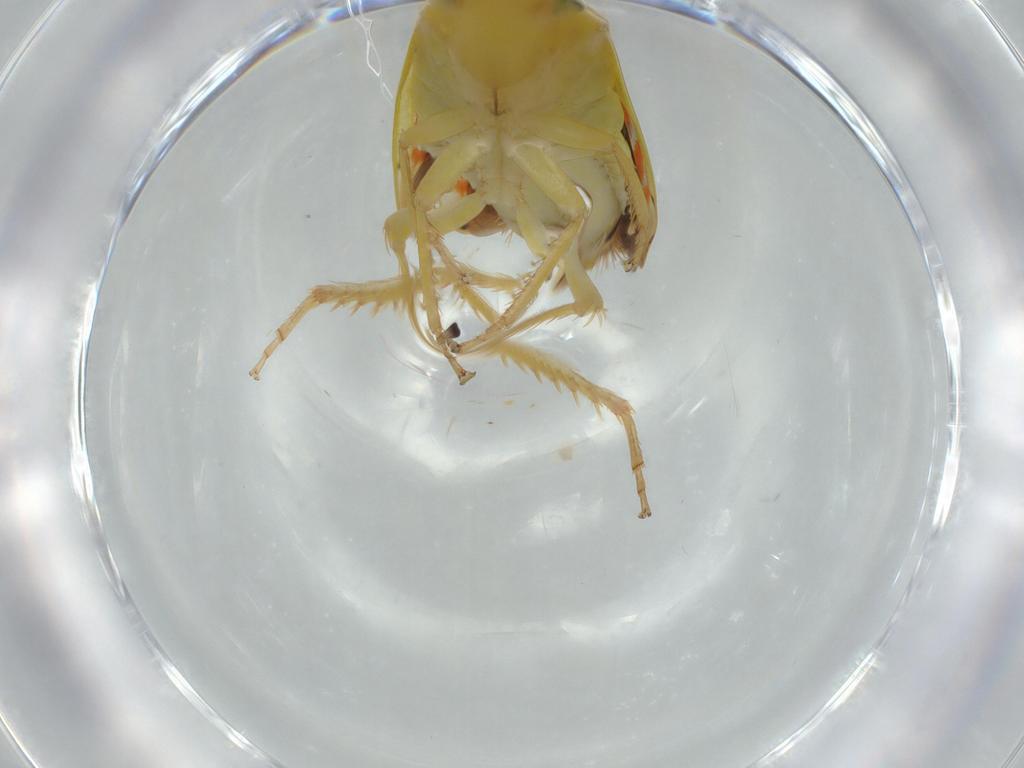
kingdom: Animalia
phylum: Arthropoda
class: Insecta
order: Hemiptera
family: Cicadellidae
